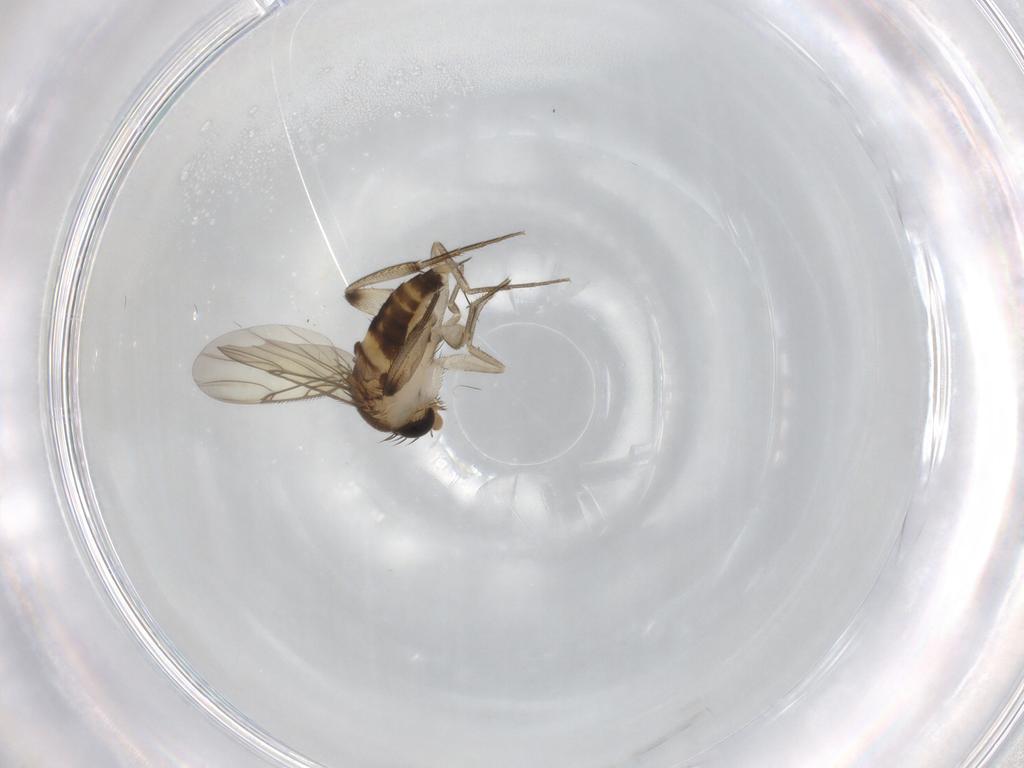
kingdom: Animalia
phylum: Arthropoda
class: Insecta
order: Diptera
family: Phoridae
